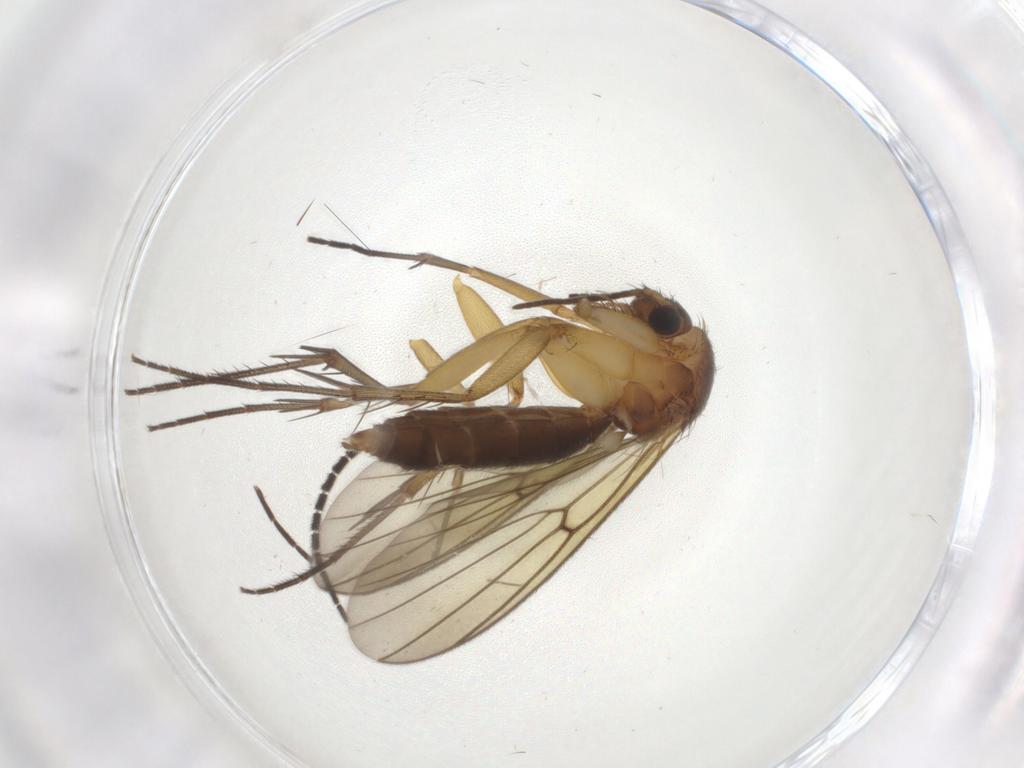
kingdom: Animalia
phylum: Arthropoda
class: Insecta
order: Diptera
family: Mycetophilidae
